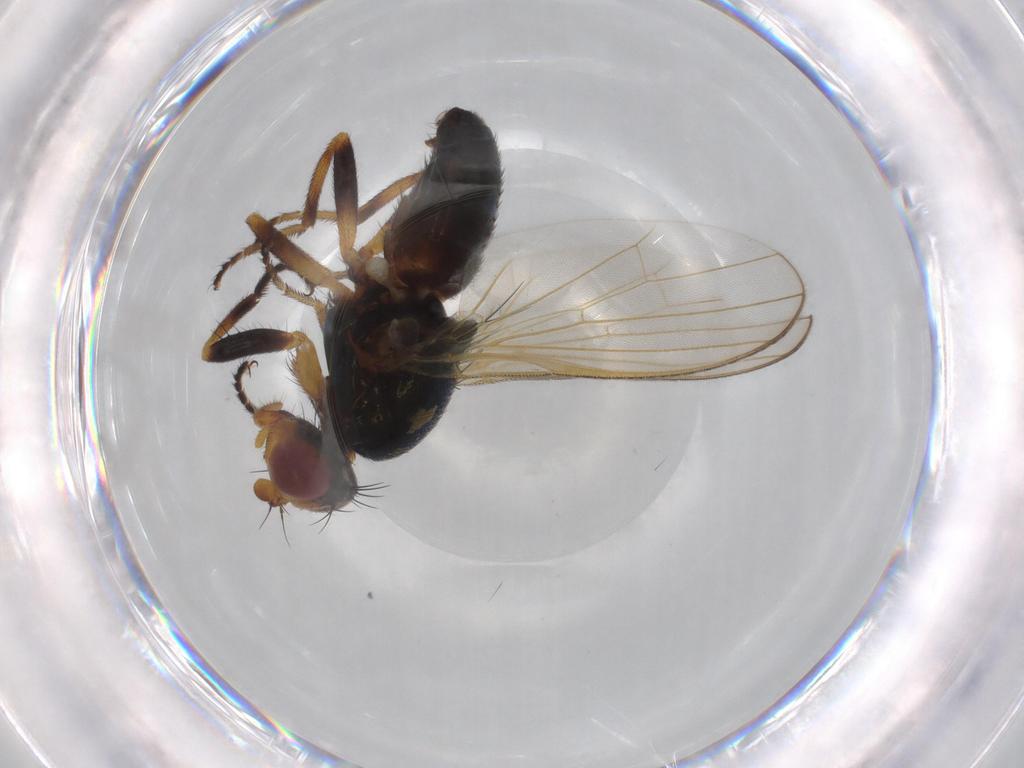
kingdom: Animalia
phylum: Arthropoda
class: Insecta
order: Diptera
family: Piophilidae
